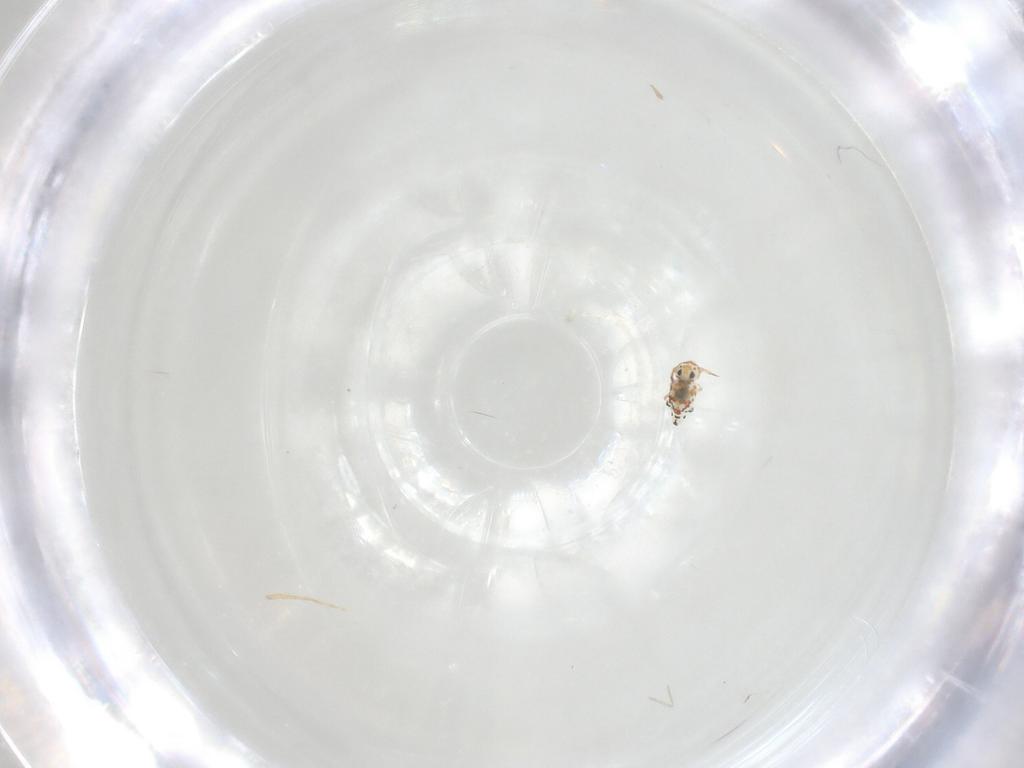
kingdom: Animalia
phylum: Arthropoda
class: Collembola
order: Symphypleona
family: Bourletiellidae
